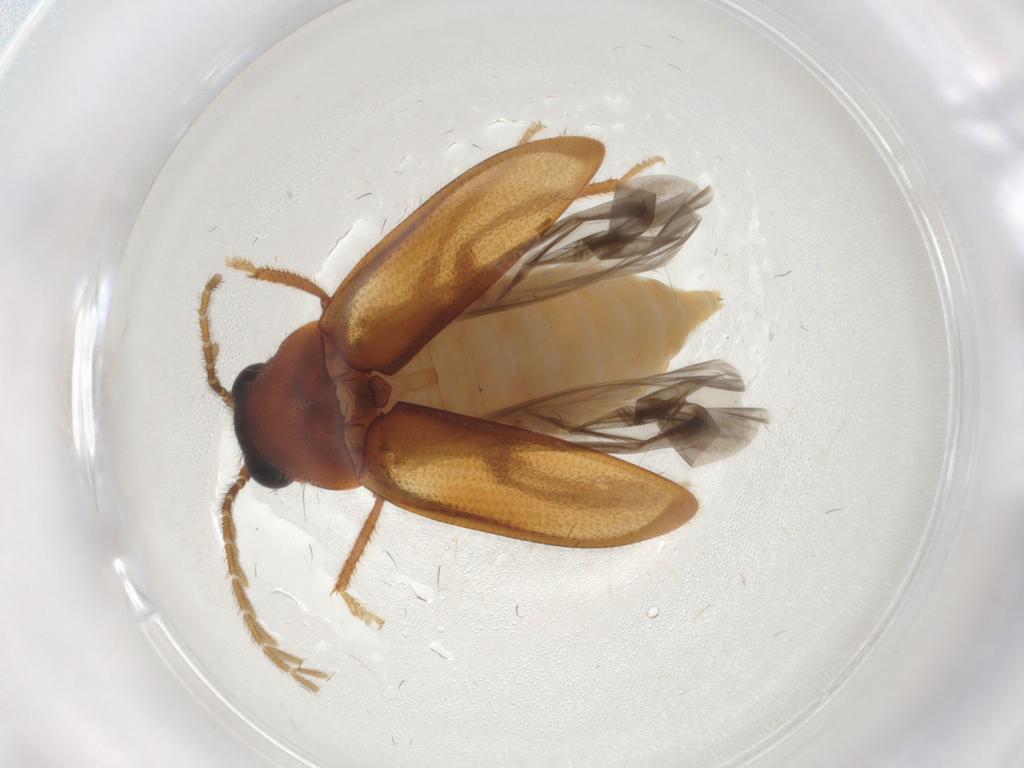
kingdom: Animalia
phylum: Arthropoda
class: Insecta
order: Coleoptera
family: Ptilodactylidae
